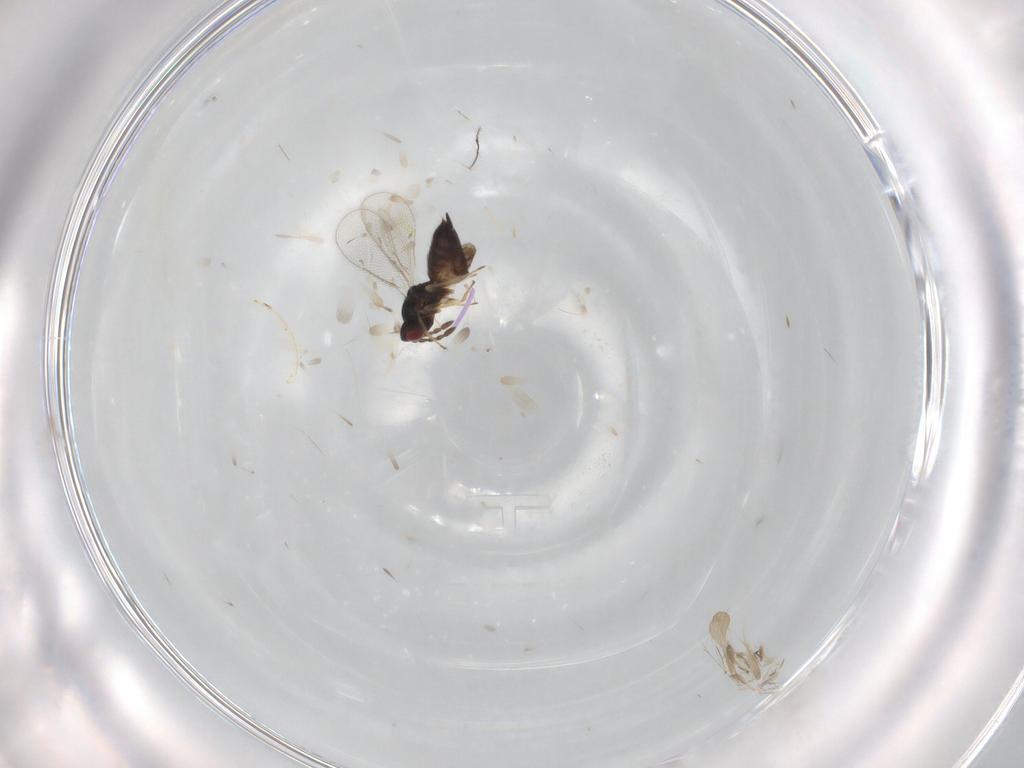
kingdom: Animalia
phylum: Arthropoda
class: Insecta
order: Hymenoptera
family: Eulophidae
